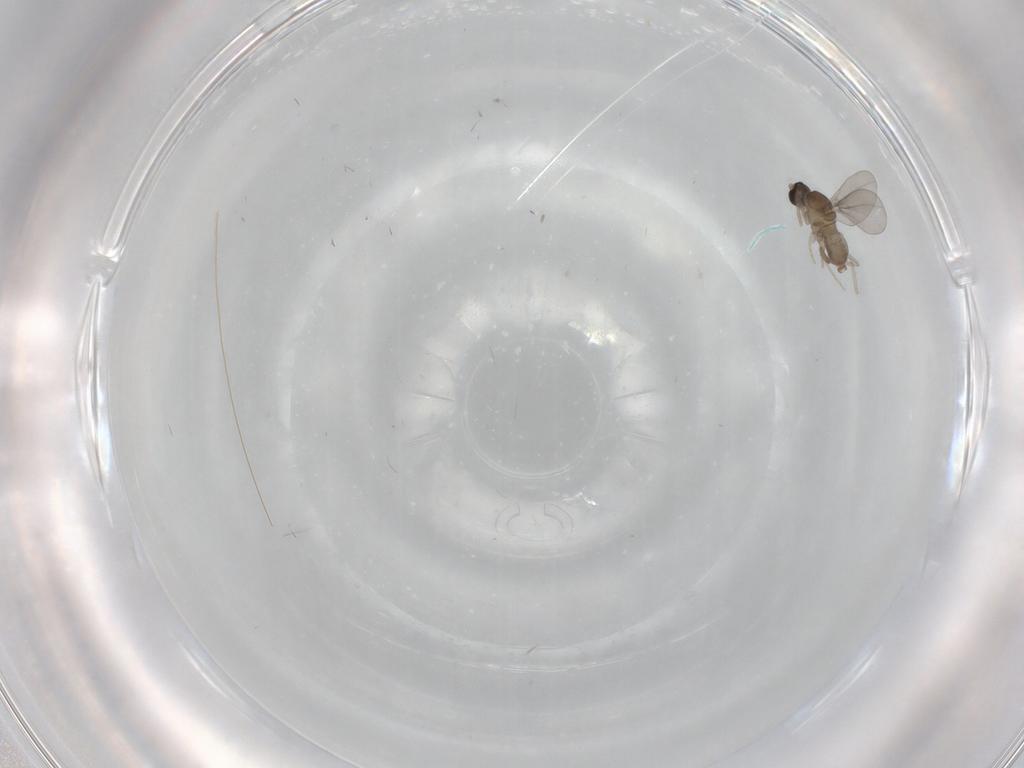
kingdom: Animalia
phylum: Arthropoda
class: Insecta
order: Diptera
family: Cecidomyiidae
